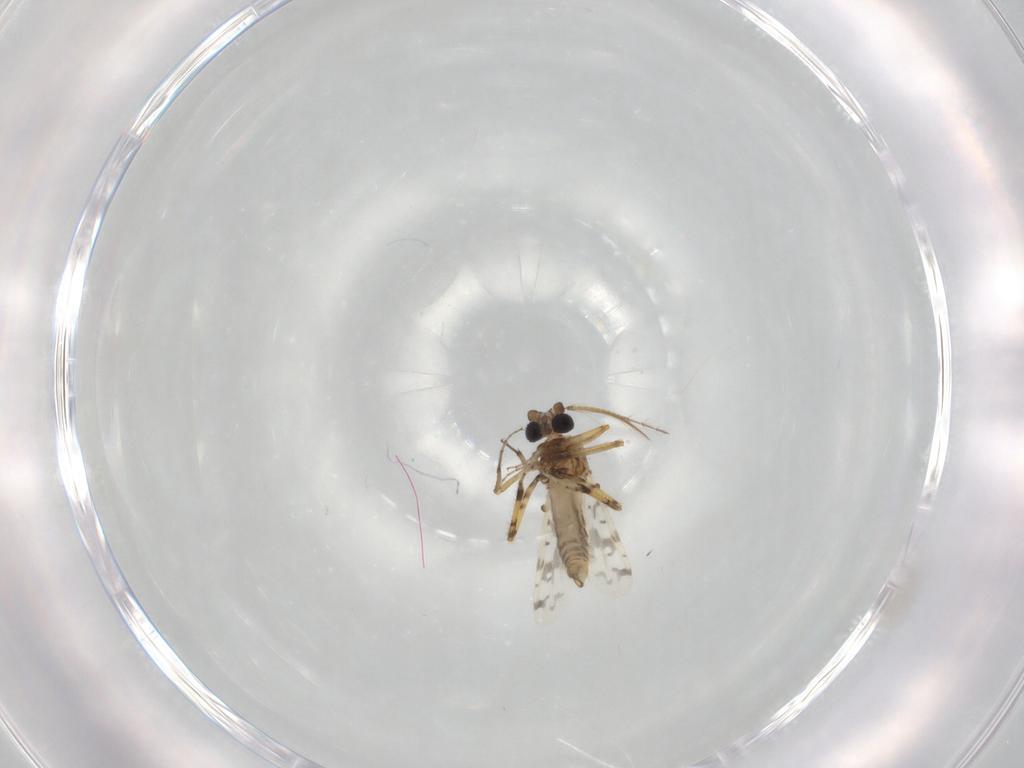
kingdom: Animalia
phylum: Arthropoda
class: Insecta
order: Diptera
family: Ceratopogonidae
